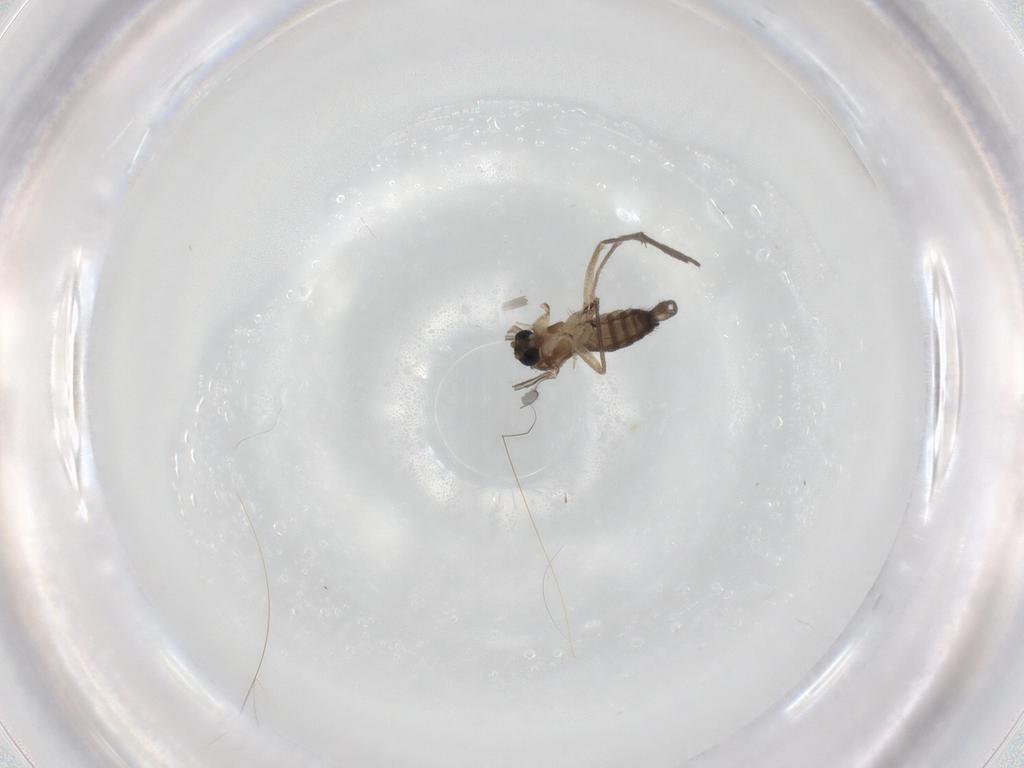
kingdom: Animalia
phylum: Arthropoda
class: Insecta
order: Diptera
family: Sciaridae
